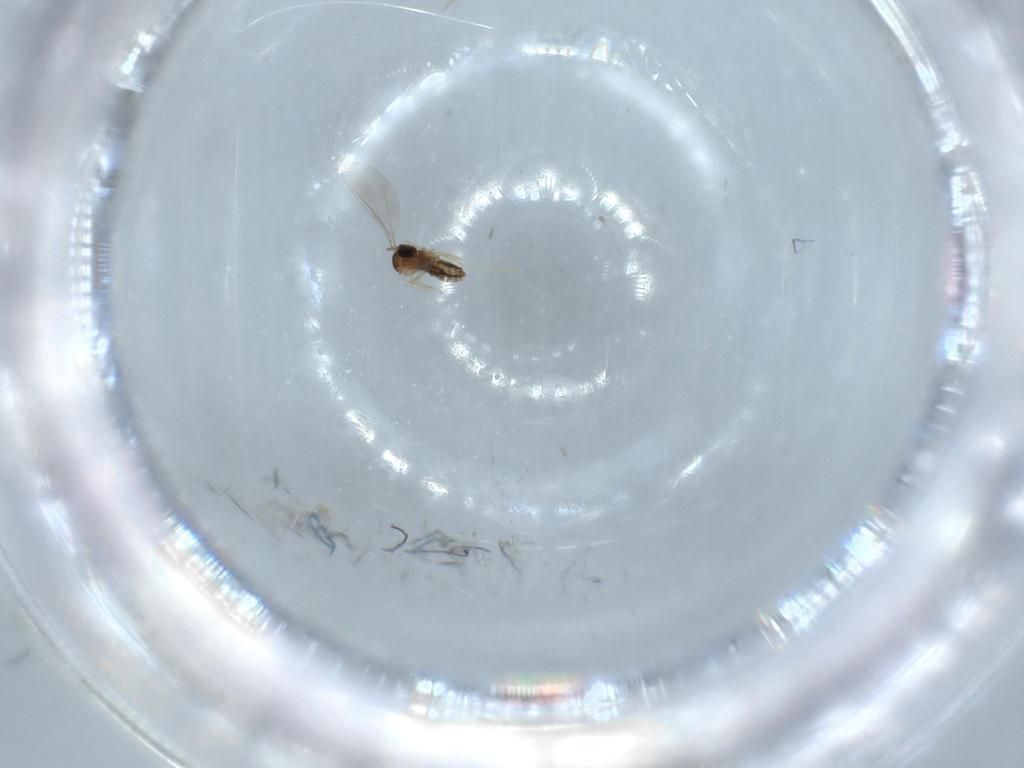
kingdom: Animalia
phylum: Arthropoda
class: Insecta
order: Diptera
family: Cecidomyiidae
